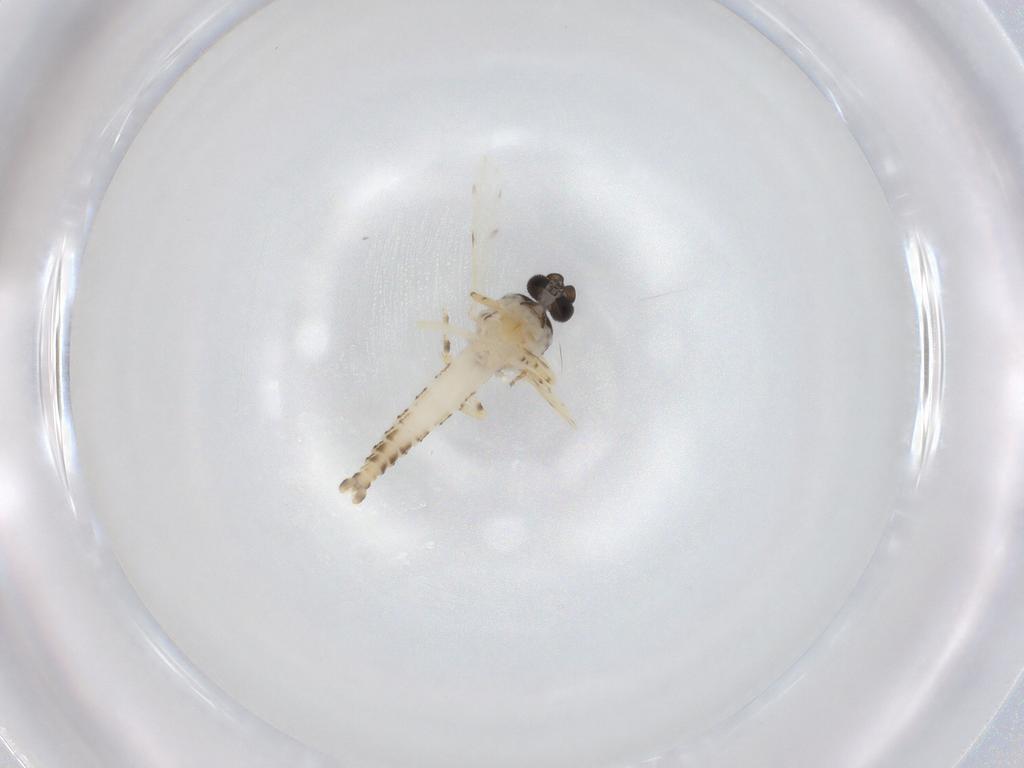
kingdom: Animalia
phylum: Arthropoda
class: Insecta
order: Diptera
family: Ceratopogonidae
